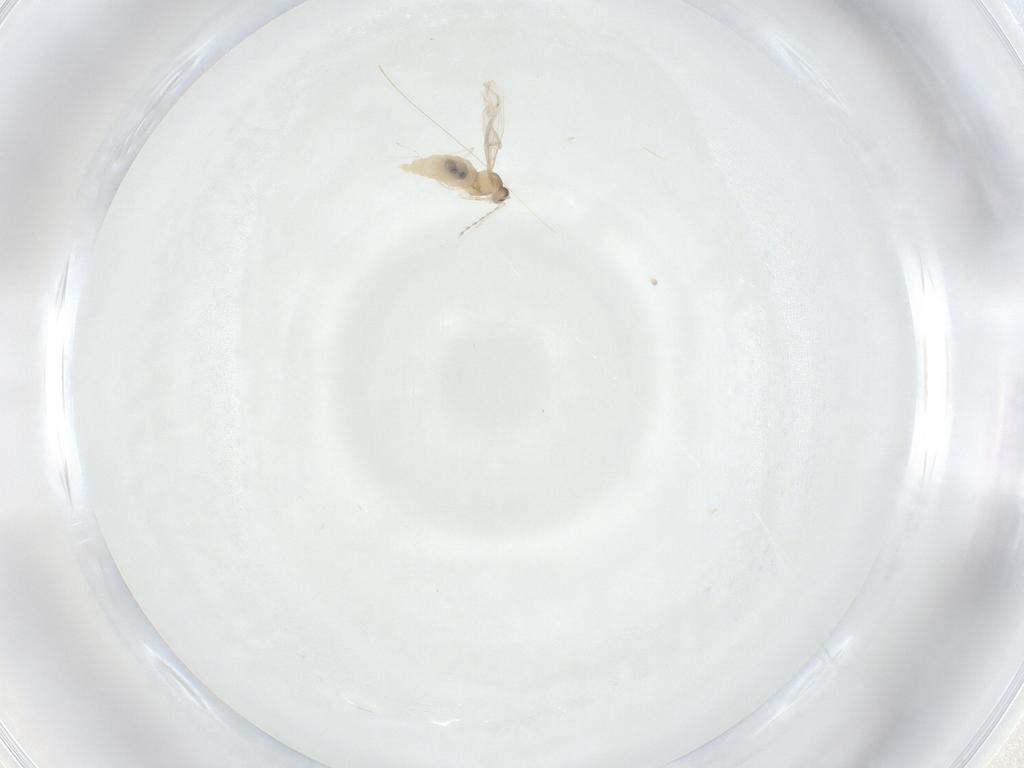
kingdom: Animalia
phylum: Arthropoda
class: Insecta
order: Diptera
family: Cecidomyiidae
